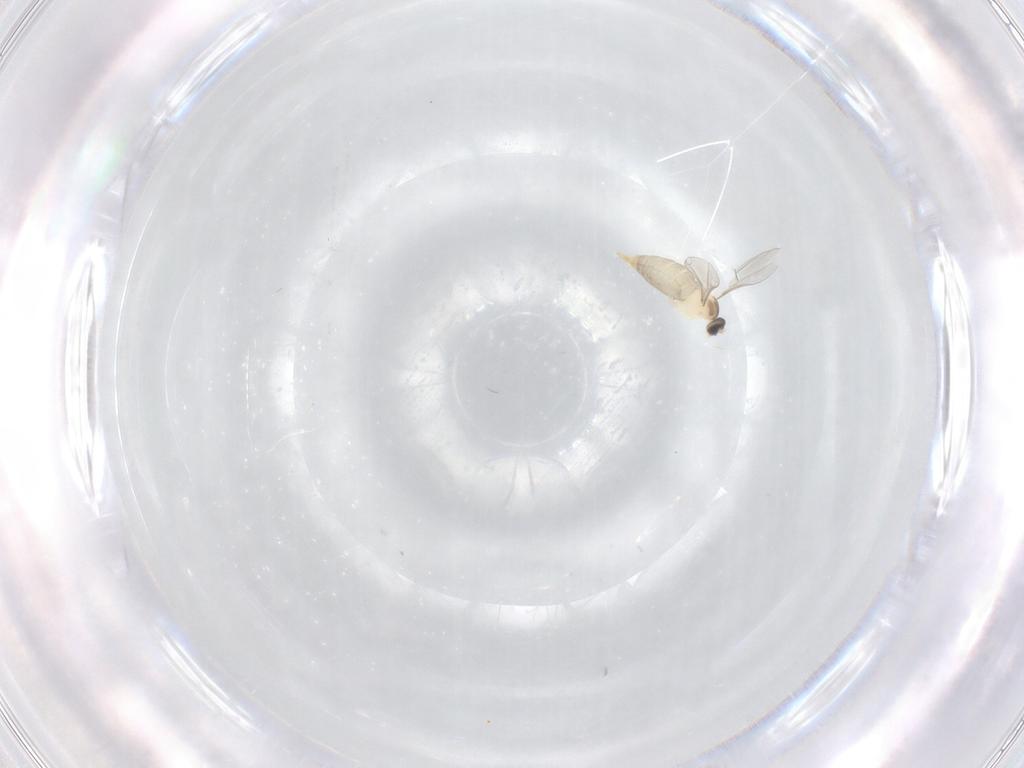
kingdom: Animalia
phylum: Arthropoda
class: Insecta
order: Diptera
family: Cecidomyiidae
